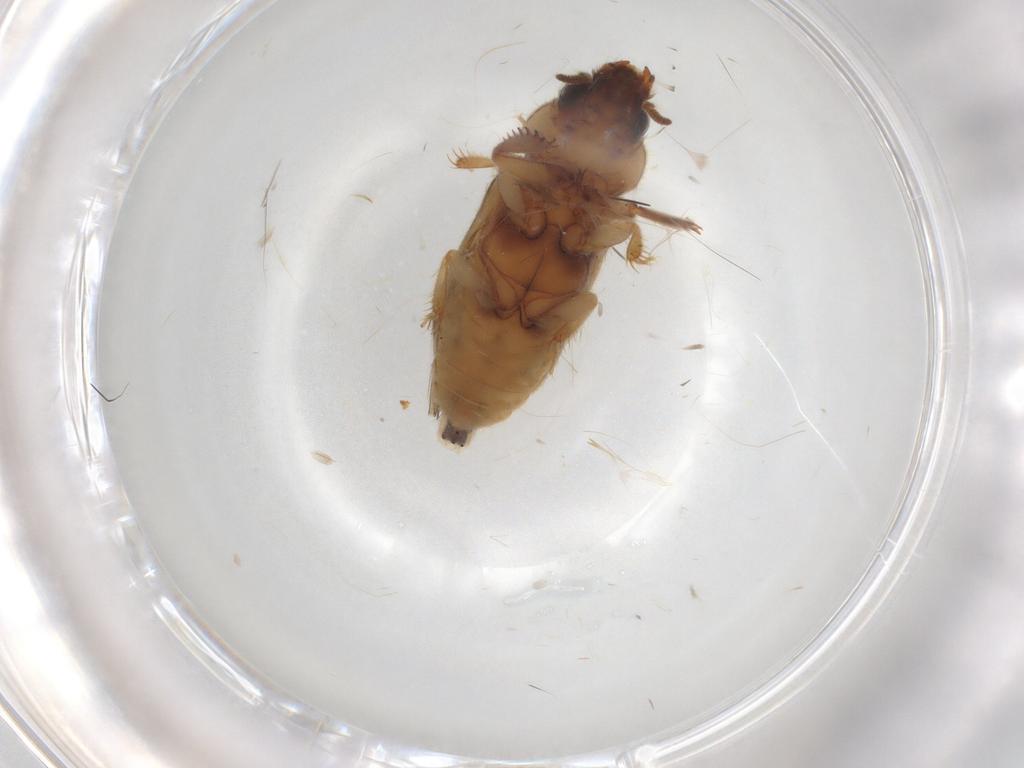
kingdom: Animalia
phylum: Arthropoda
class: Insecta
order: Coleoptera
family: Heteroceridae
